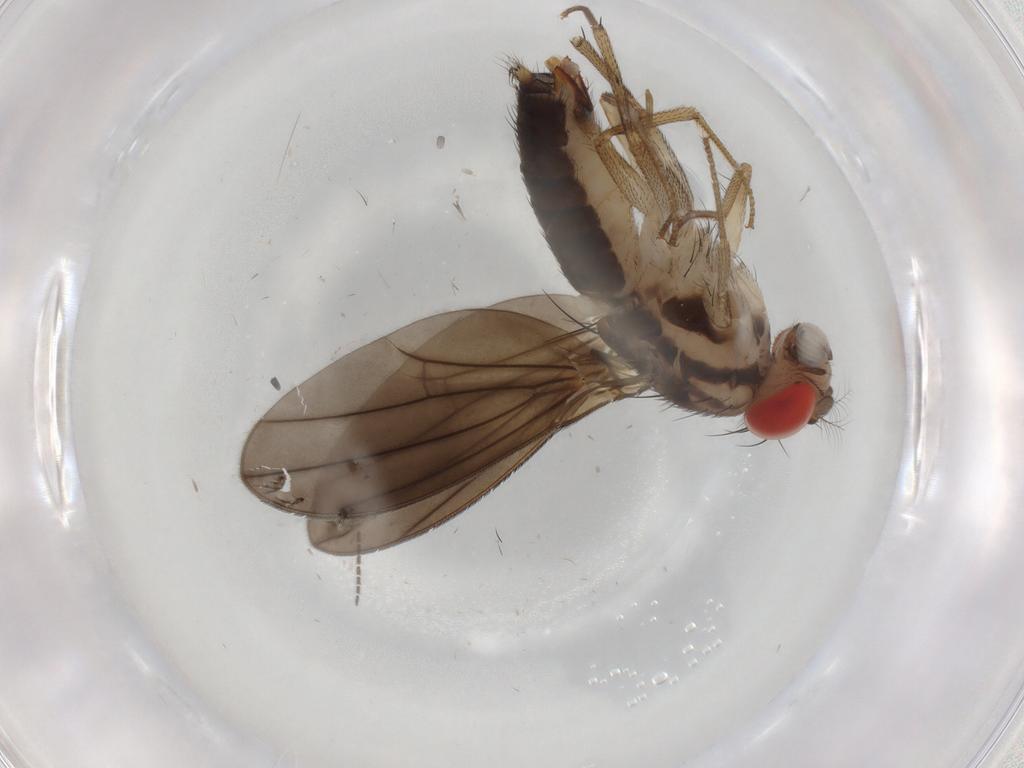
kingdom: Animalia
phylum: Arthropoda
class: Insecta
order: Diptera
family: Drosophilidae
